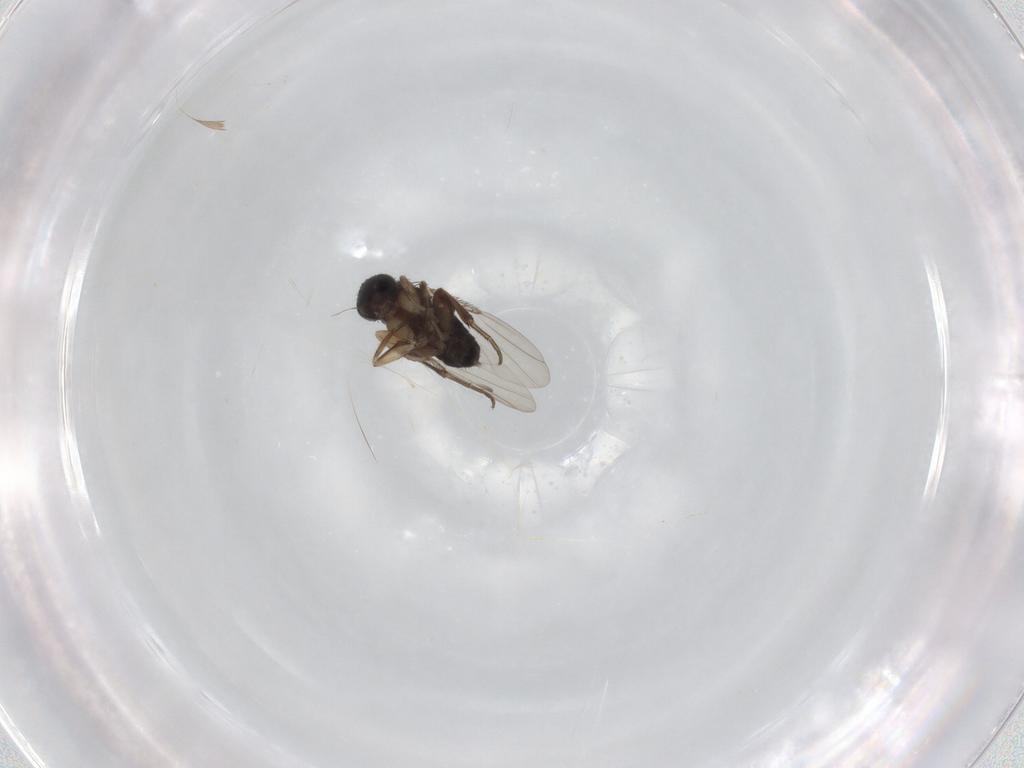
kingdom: Animalia
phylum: Arthropoda
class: Insecta
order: Diptera
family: Phoridae
